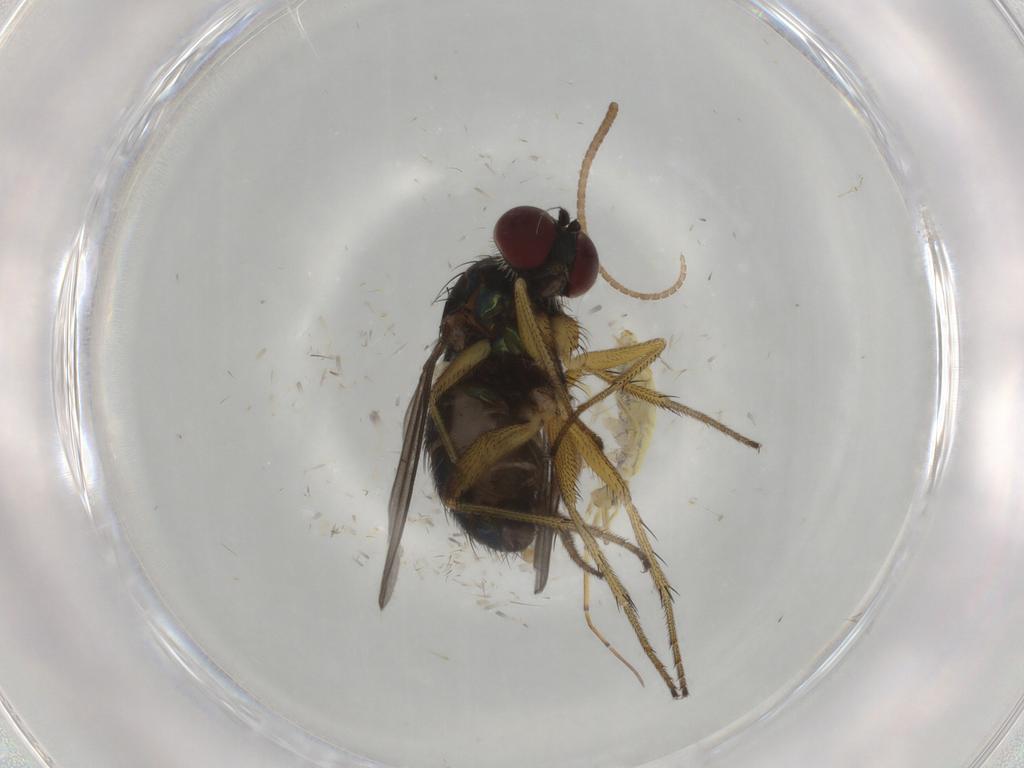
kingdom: Animalia
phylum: Arthropoda
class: Insecta
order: Diptera
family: Dolichopodidae
